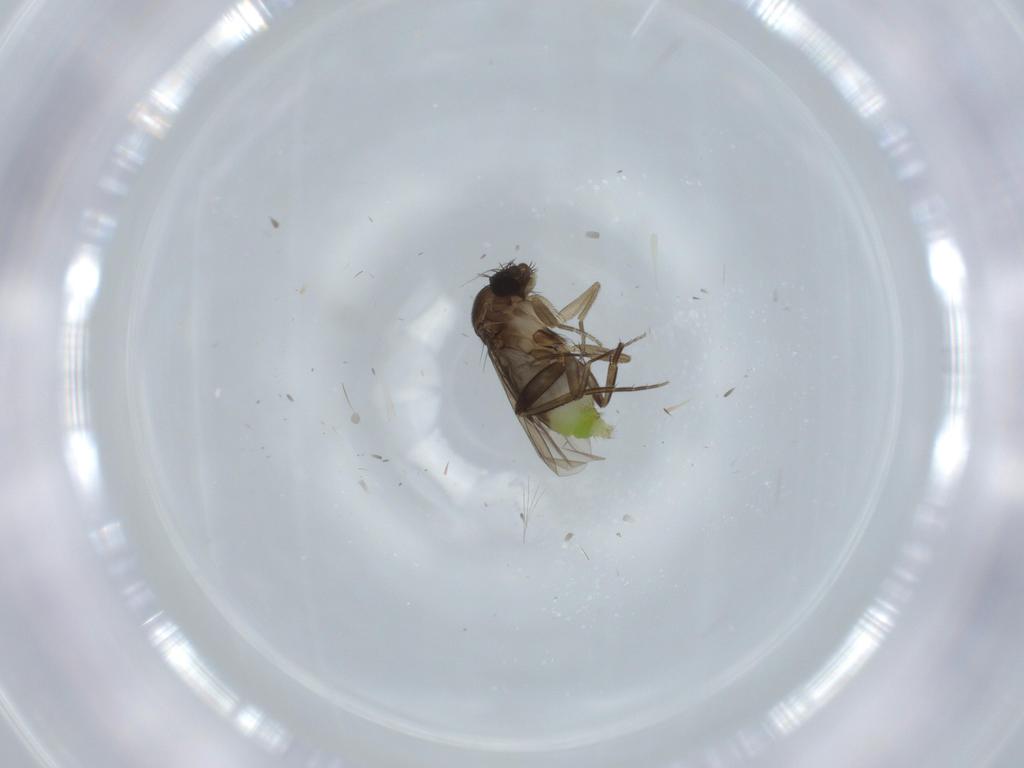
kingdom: Animalia
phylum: Arthropoda
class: Insecta
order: Diptera
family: Phoridae
